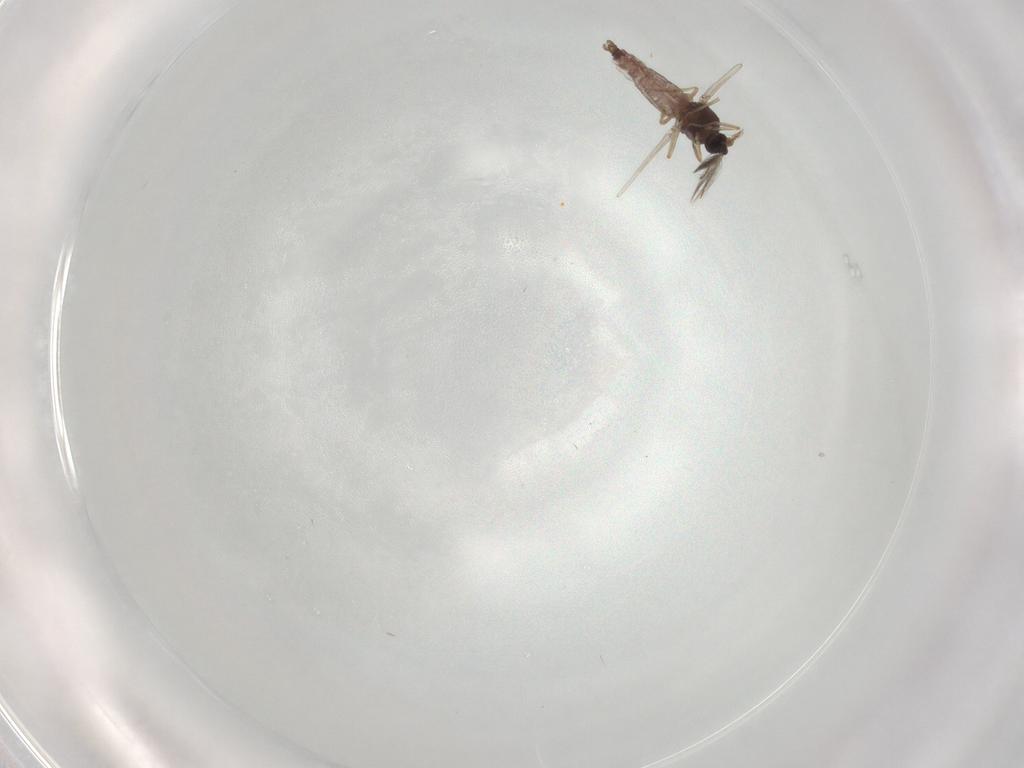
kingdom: Animalia
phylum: Arthropoda
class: Insecta
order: Diptera
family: Ceratopogonidae
